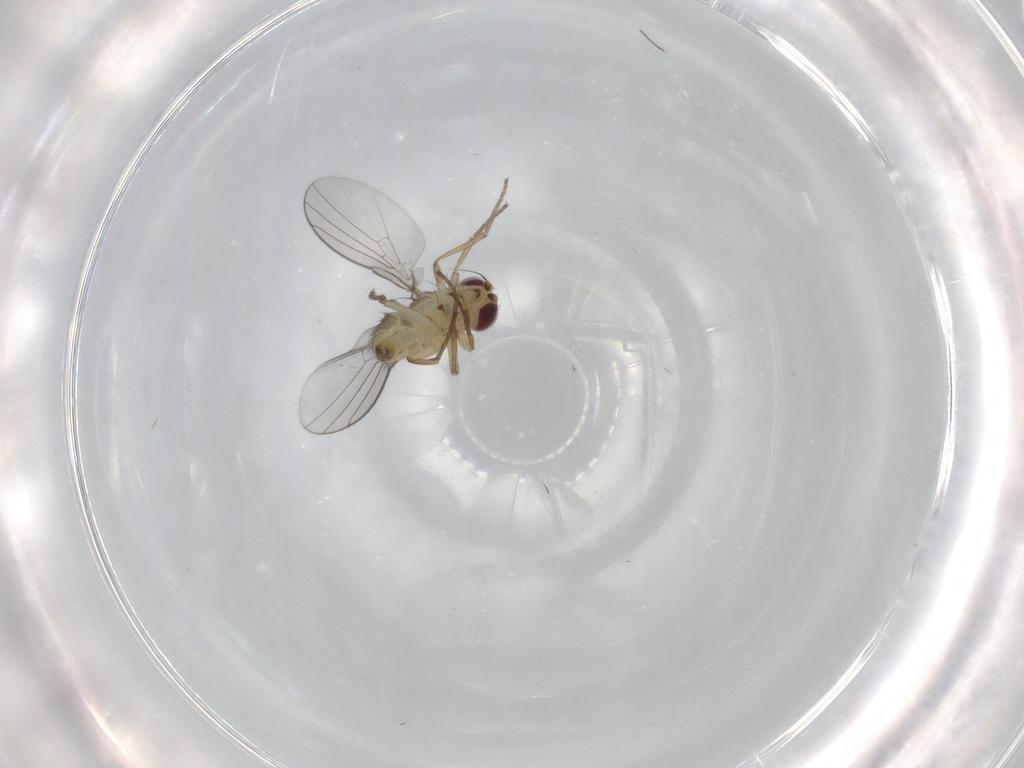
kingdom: Animalia
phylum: Arthropoda
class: Insecta
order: Diptera
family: Agromyzidae
